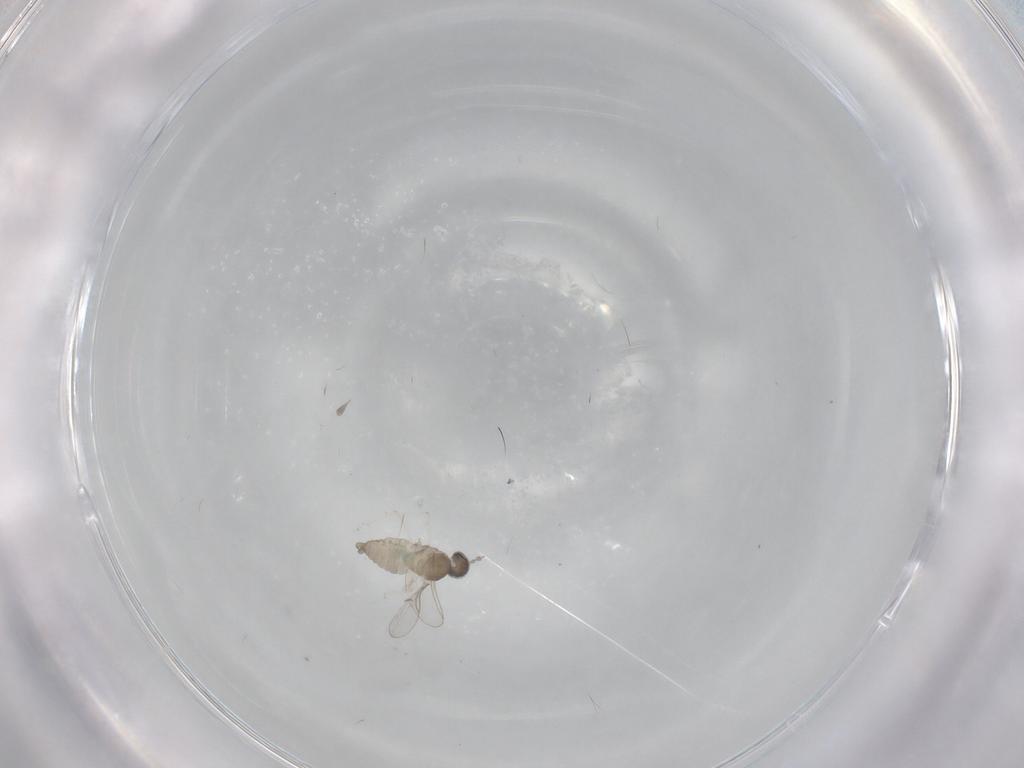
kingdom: Animalia
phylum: Arthropoda
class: Insecta
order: Diptera
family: Cecidomyiidae
